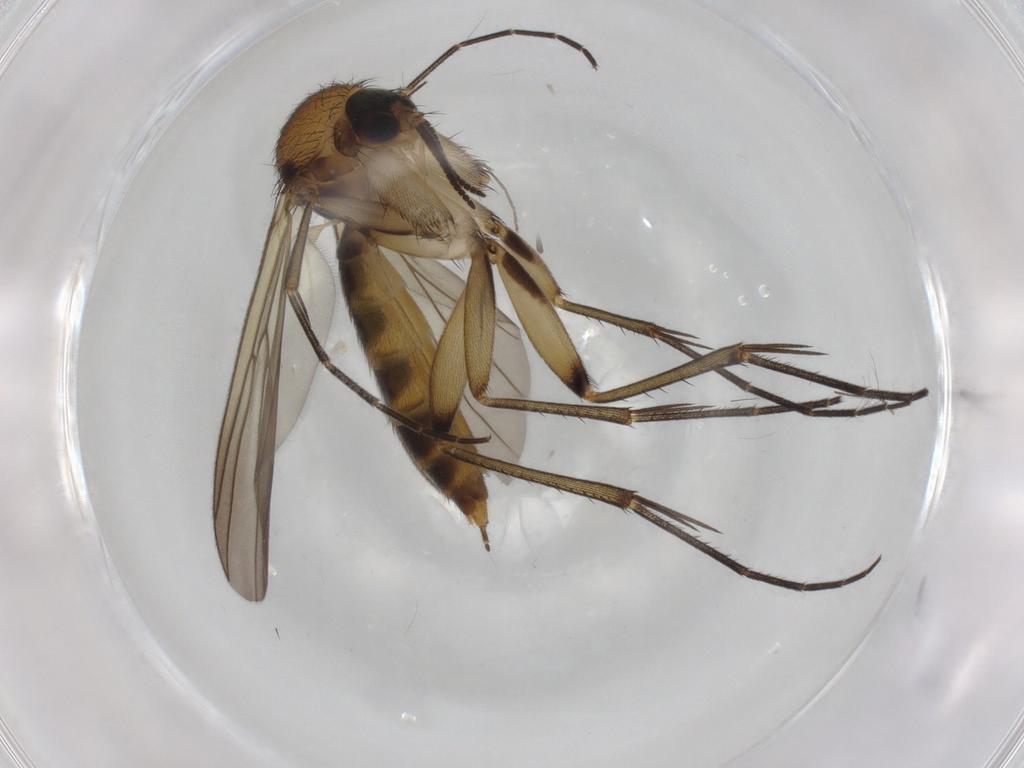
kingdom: Animalia
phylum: Arthropoda
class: Insecta
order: Diptera
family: Mycetophilidae
